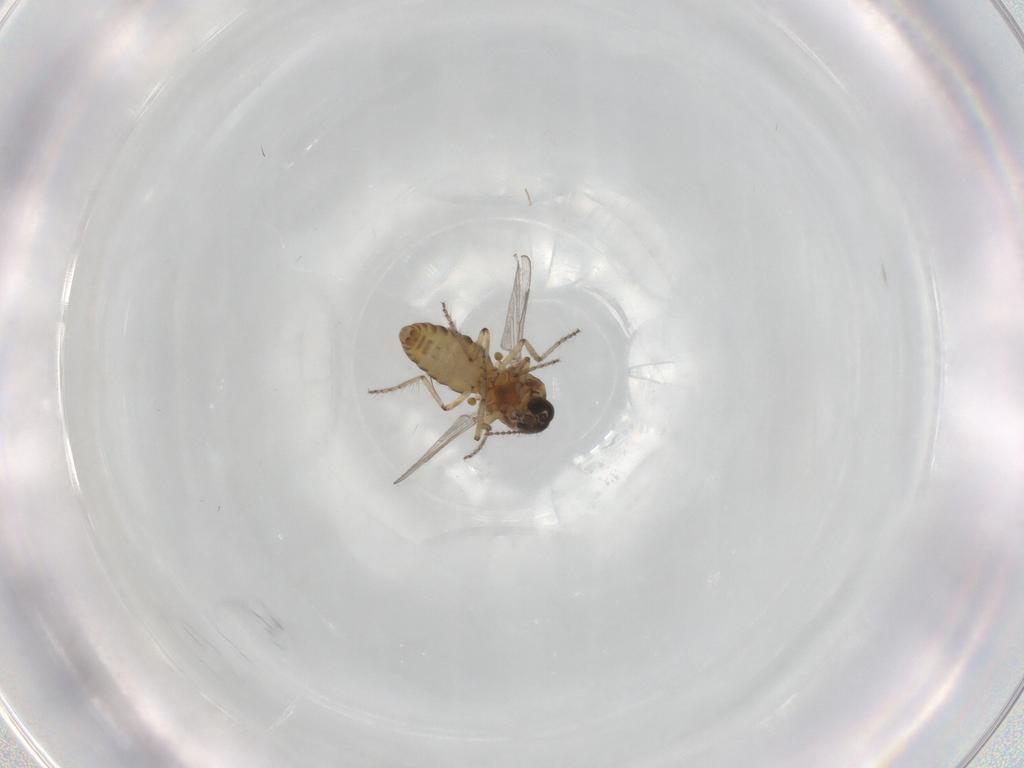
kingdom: Animalia
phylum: Arthropoda
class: Insecta
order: Diptera
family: Ceratopogonidae
